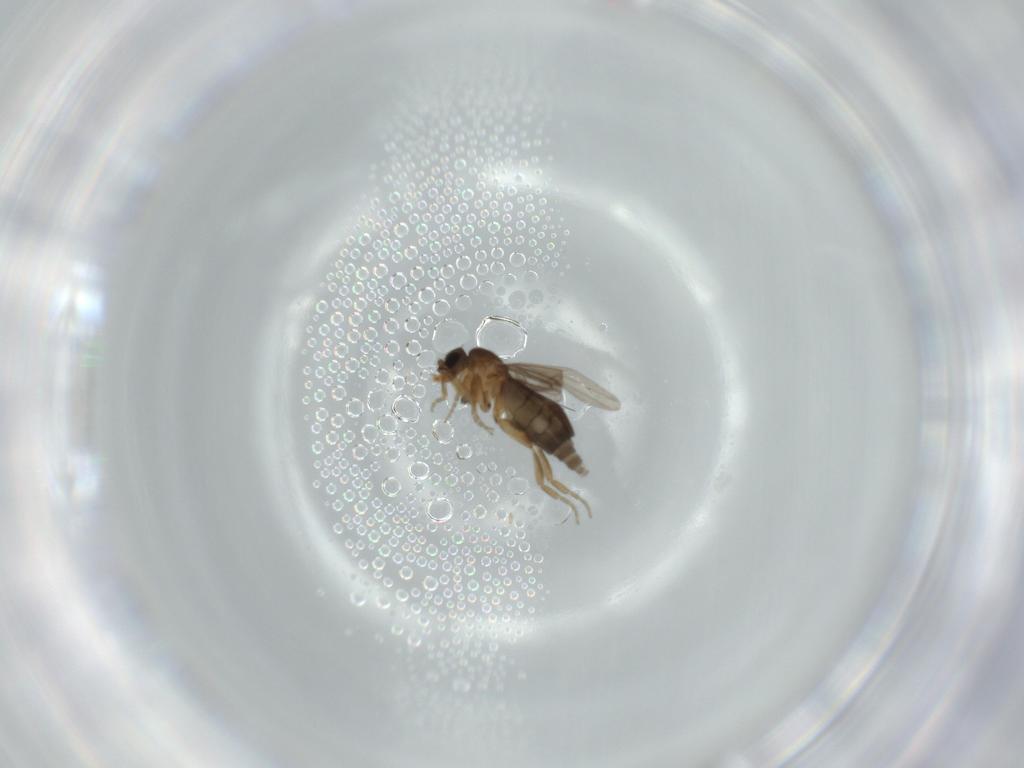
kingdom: Animalia
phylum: Arthropoda
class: Insecta
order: Diptera
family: Phoridae
